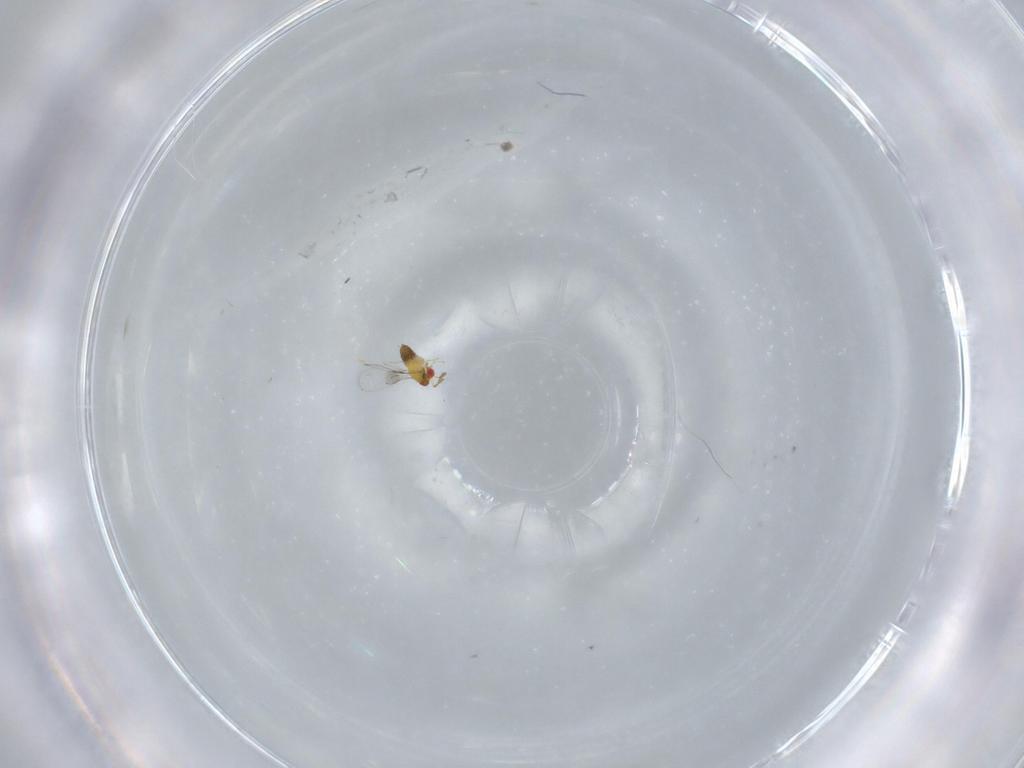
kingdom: Animalia
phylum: Arthropoda
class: Insecta
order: Hymenoptera
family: Trichogrammatidae
